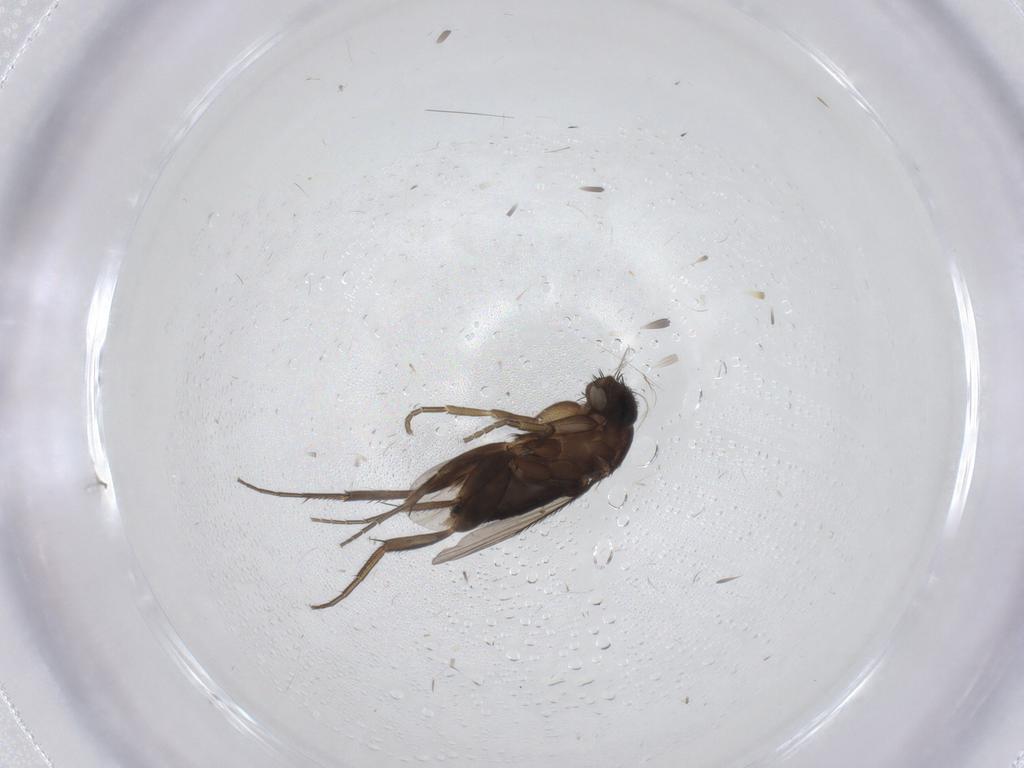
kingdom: Animalia
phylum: Arthropoda
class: Insecta
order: Diptera
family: Phoridae
